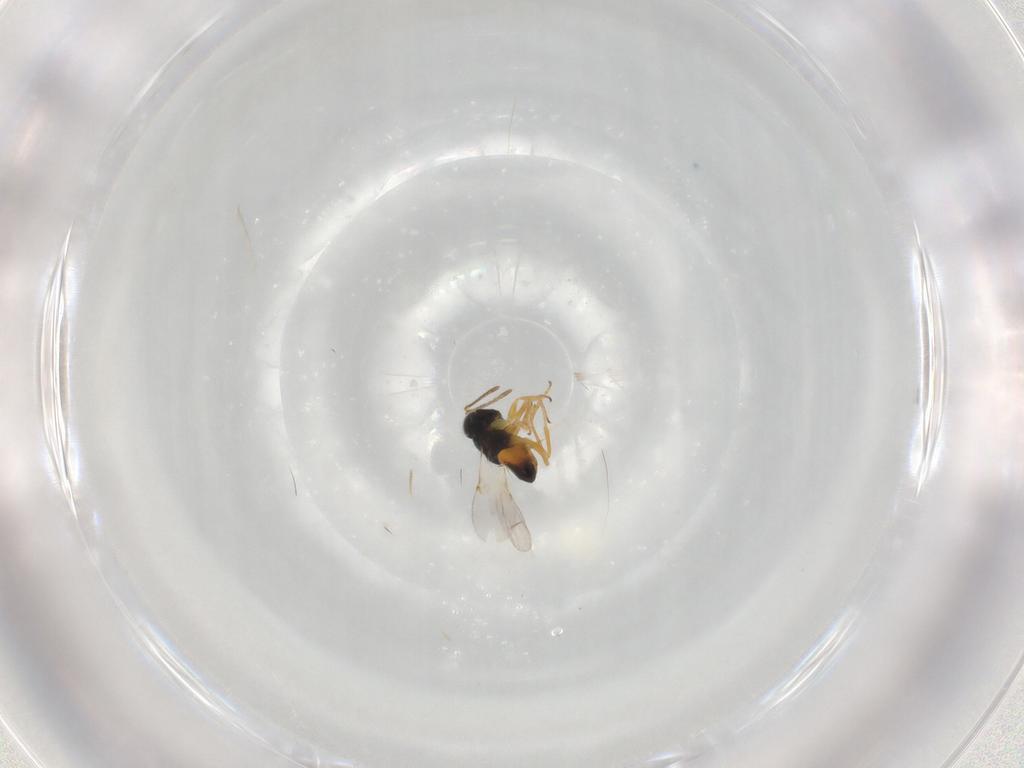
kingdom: Animalia
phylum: Arthropoda
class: Insecta
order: Hymenoptera
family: Encyrtidae
